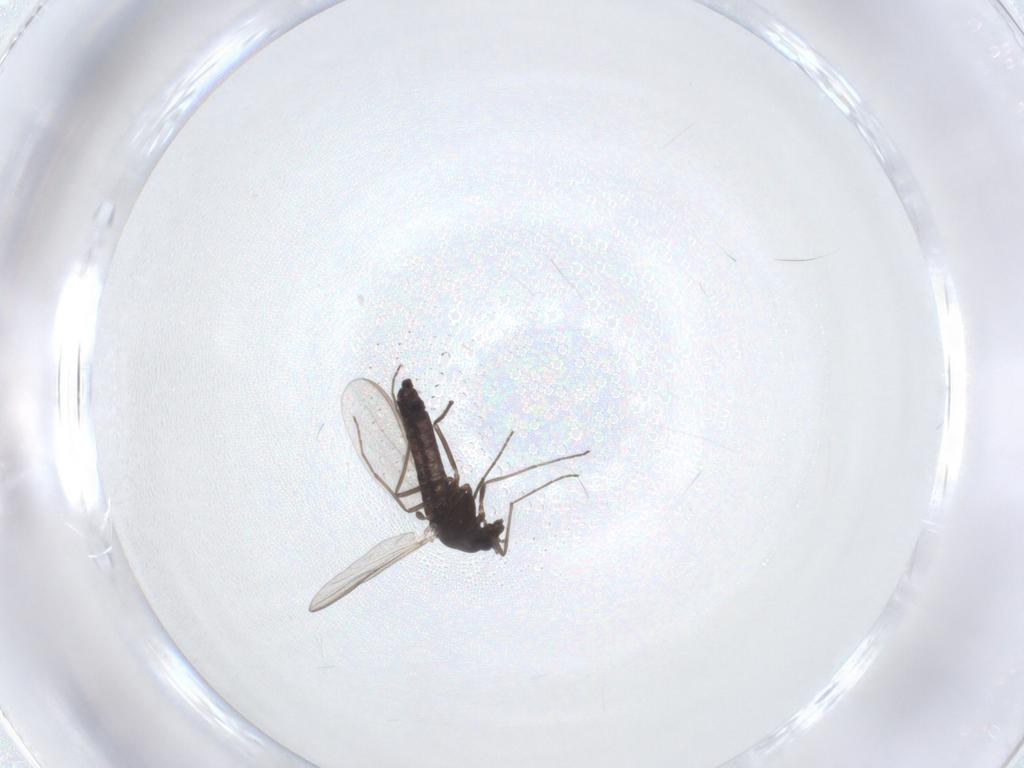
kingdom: Animalia
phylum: Arthropoda
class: Insecta
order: Diptera
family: Chironomidae
